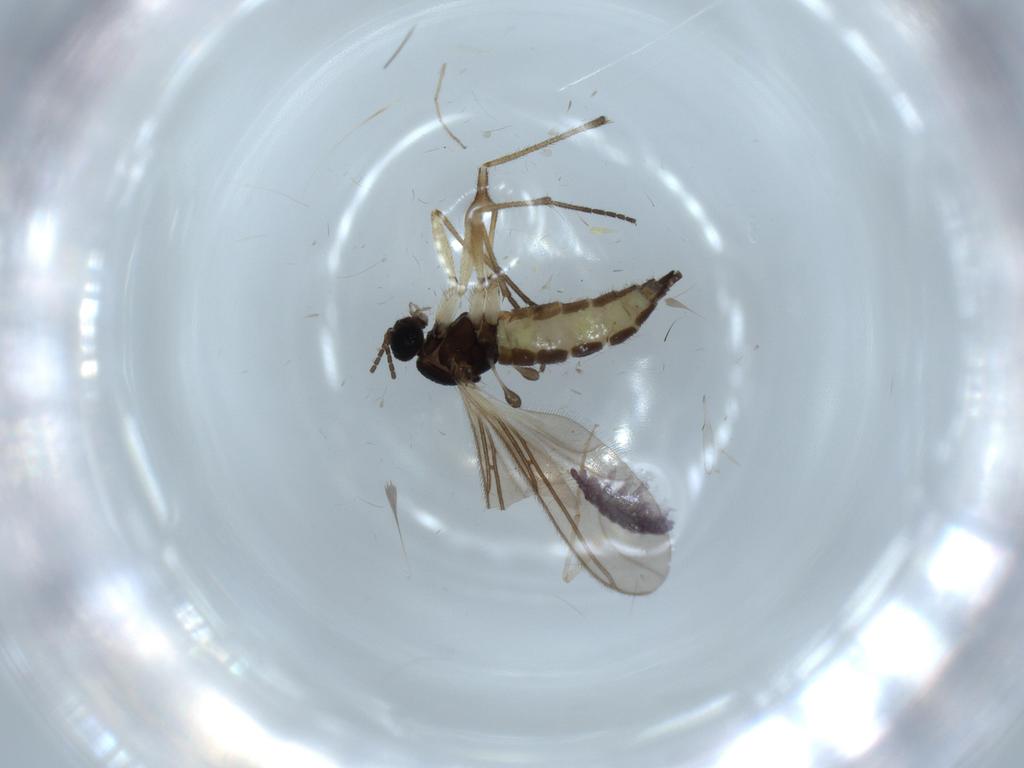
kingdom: Animalia
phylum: Arthropoda
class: Insecta
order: Diptera
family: Sciaridae
